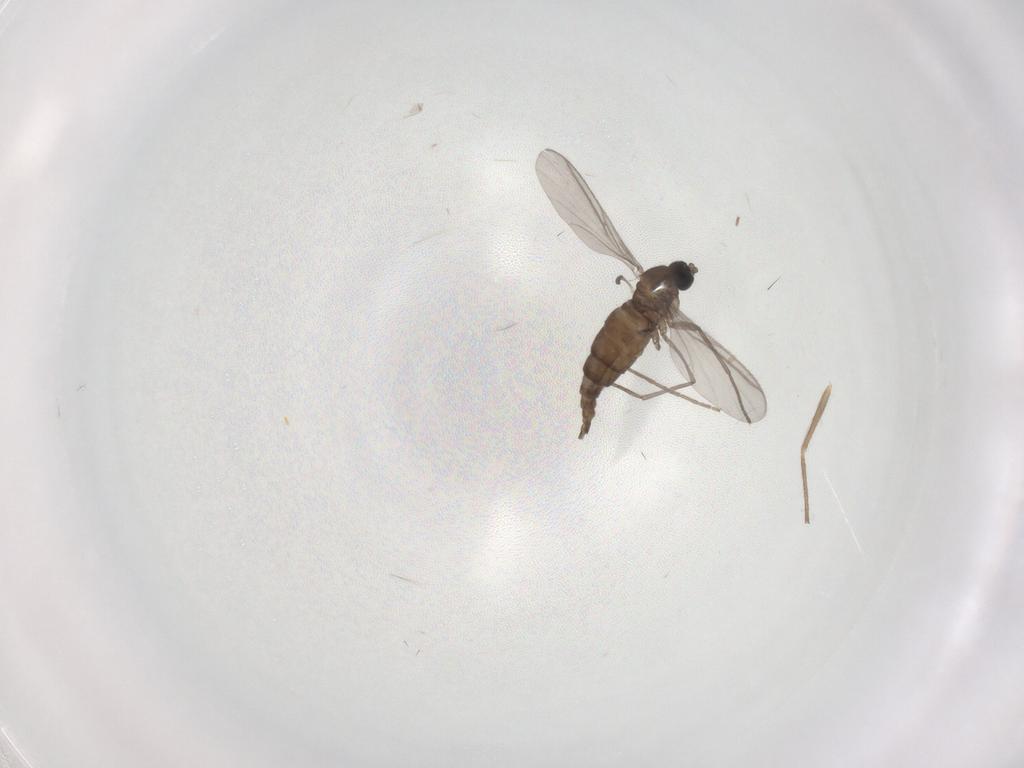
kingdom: Animalia
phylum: Arthropoda
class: Insecta
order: Diptera
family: Chironomidae
